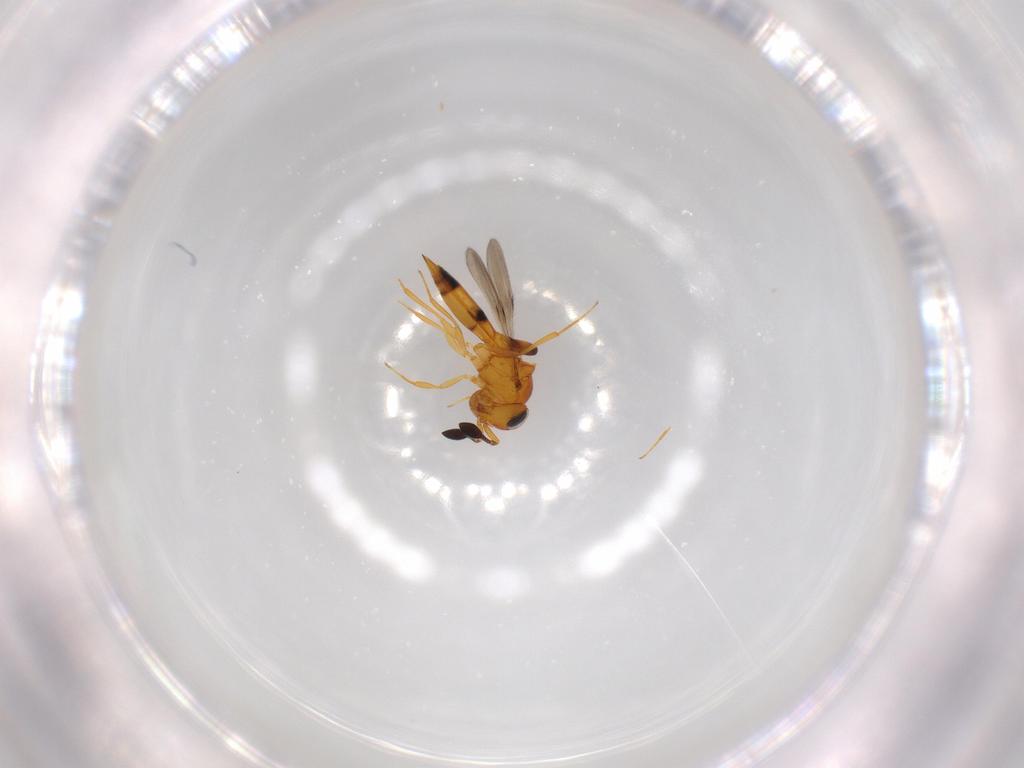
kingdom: Animalia
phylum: Arthropoda
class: Insecta
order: Hymenoptera
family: Scelionidae
